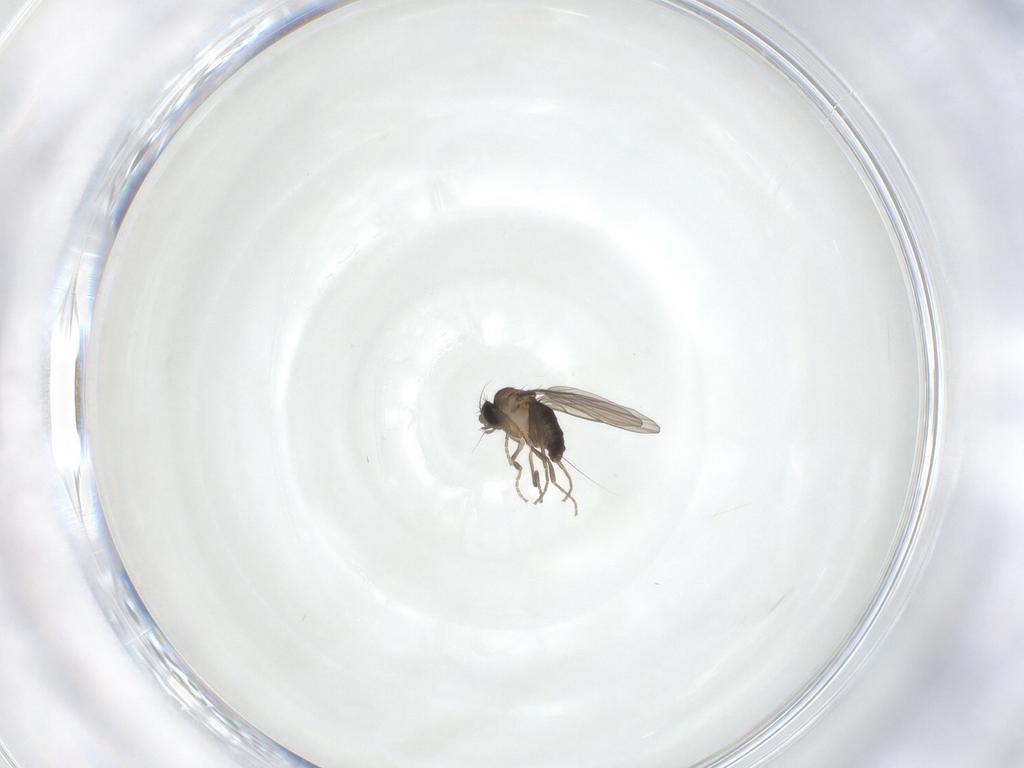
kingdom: Animalia
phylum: Arthropoda
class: Insecta
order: Diptera
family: Phoridae
